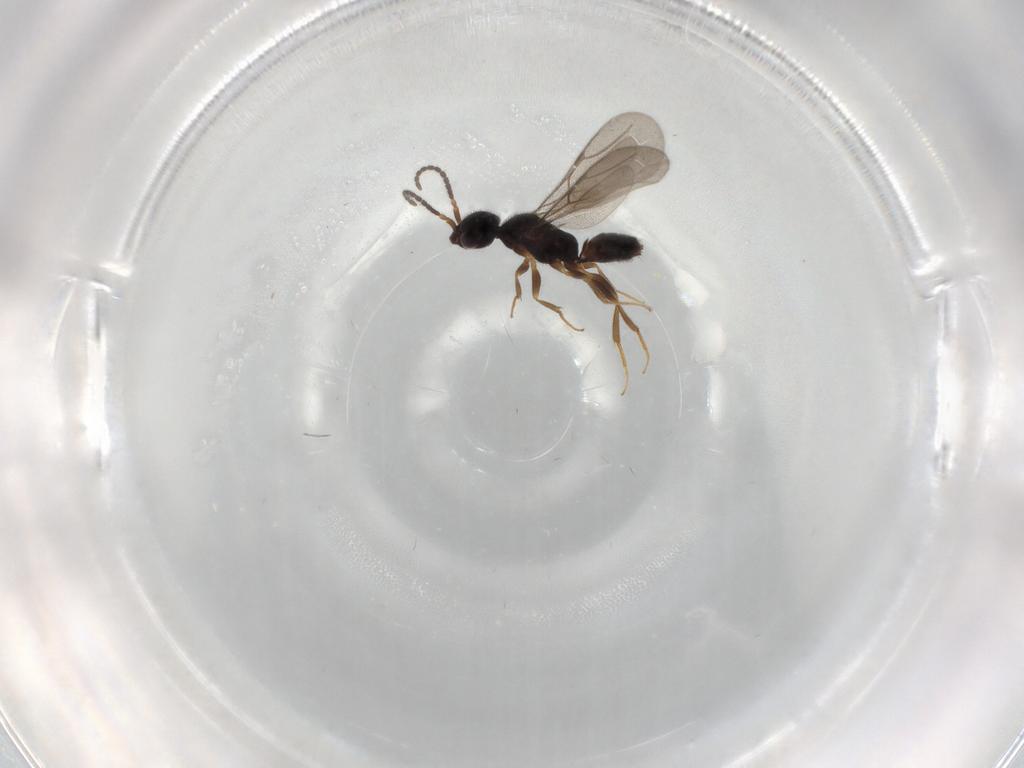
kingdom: Animalia
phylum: Arthropoda
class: Insecta
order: Hymenoptera
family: Bethylidae
